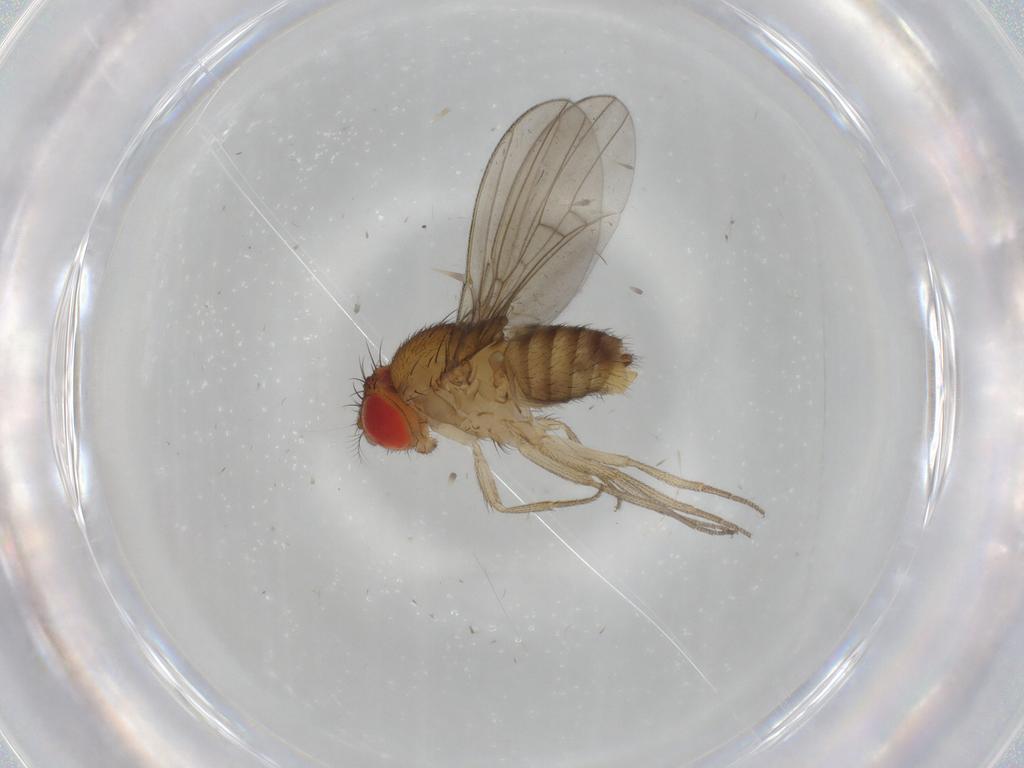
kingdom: Animalia
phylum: Arthropoda
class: Insecta
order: Diptera
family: Drosophilidae
